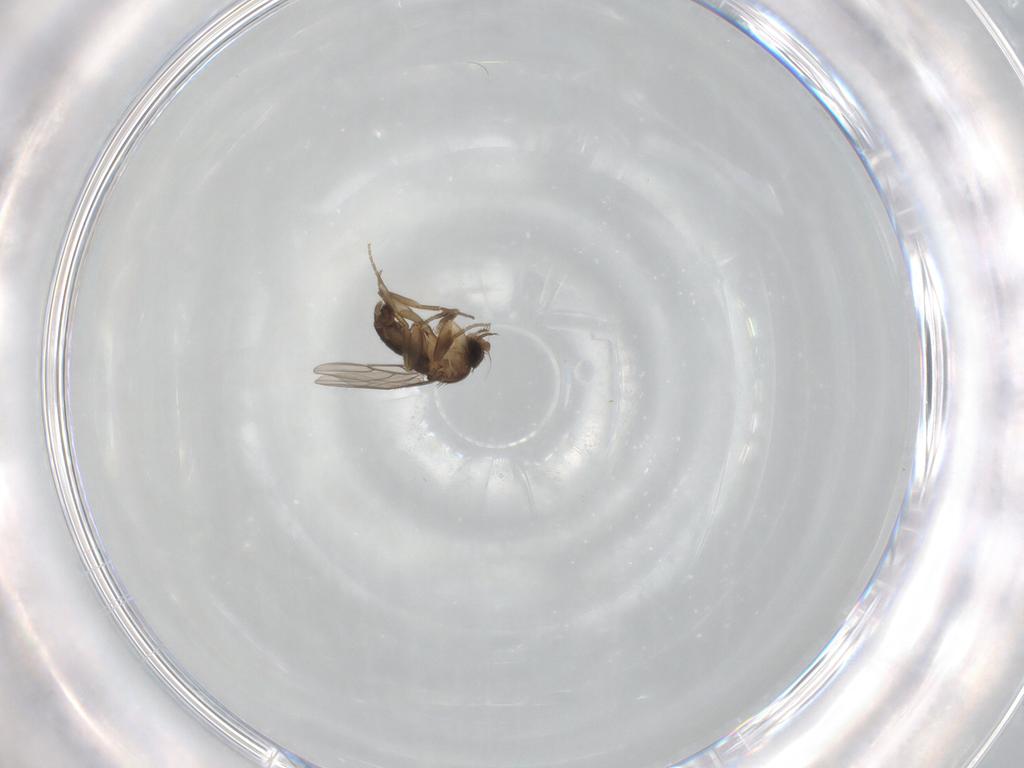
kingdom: Animalia
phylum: Arthropoda
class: Insecta
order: Diptera
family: Phoridae
